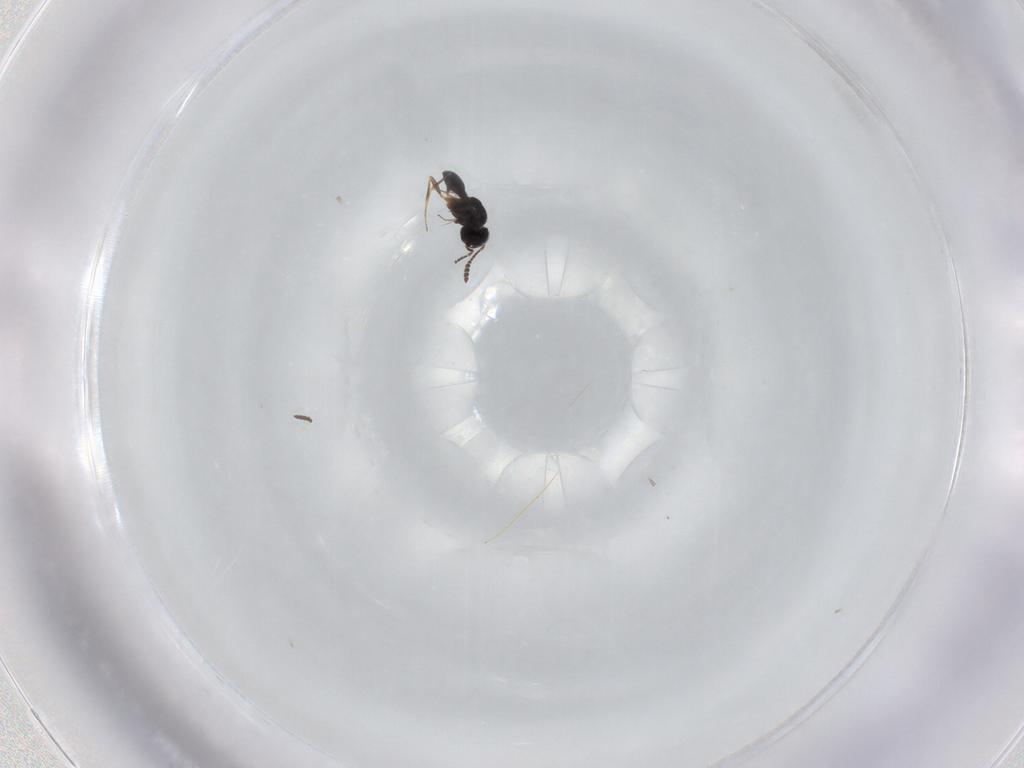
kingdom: Animalia
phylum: Arthropoda
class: Insecta
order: Hymenoptera
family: Scelionidae
